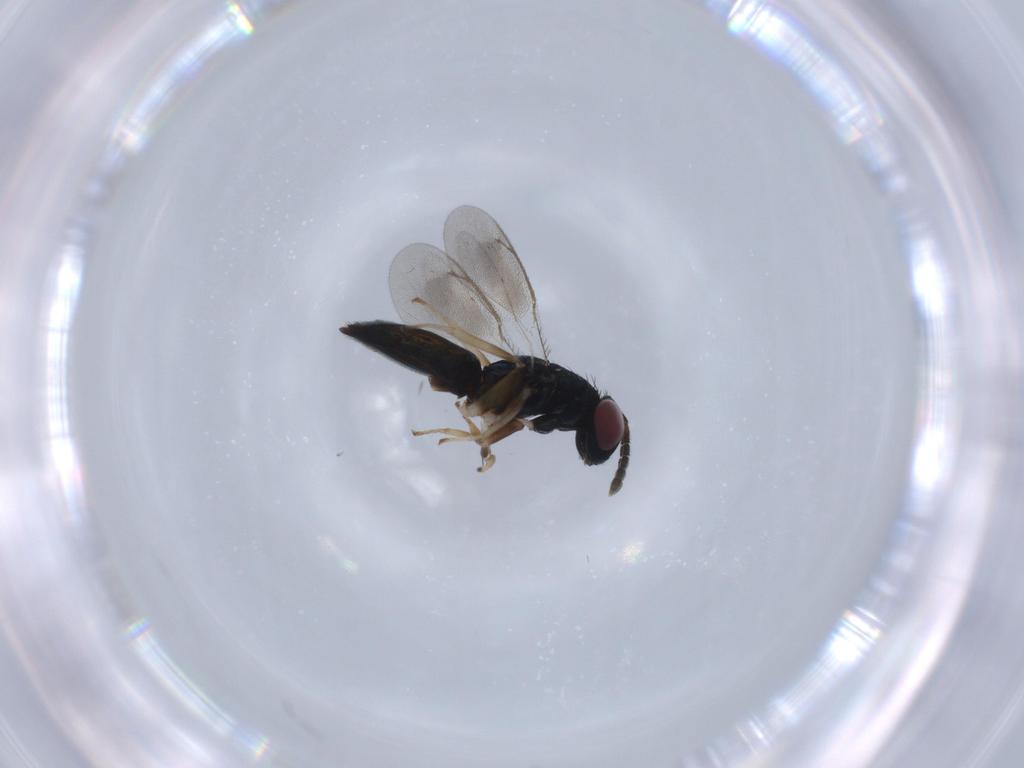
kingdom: Animalia
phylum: Arthropoda
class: Insecta
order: Hymenoptera
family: Eulophidae
